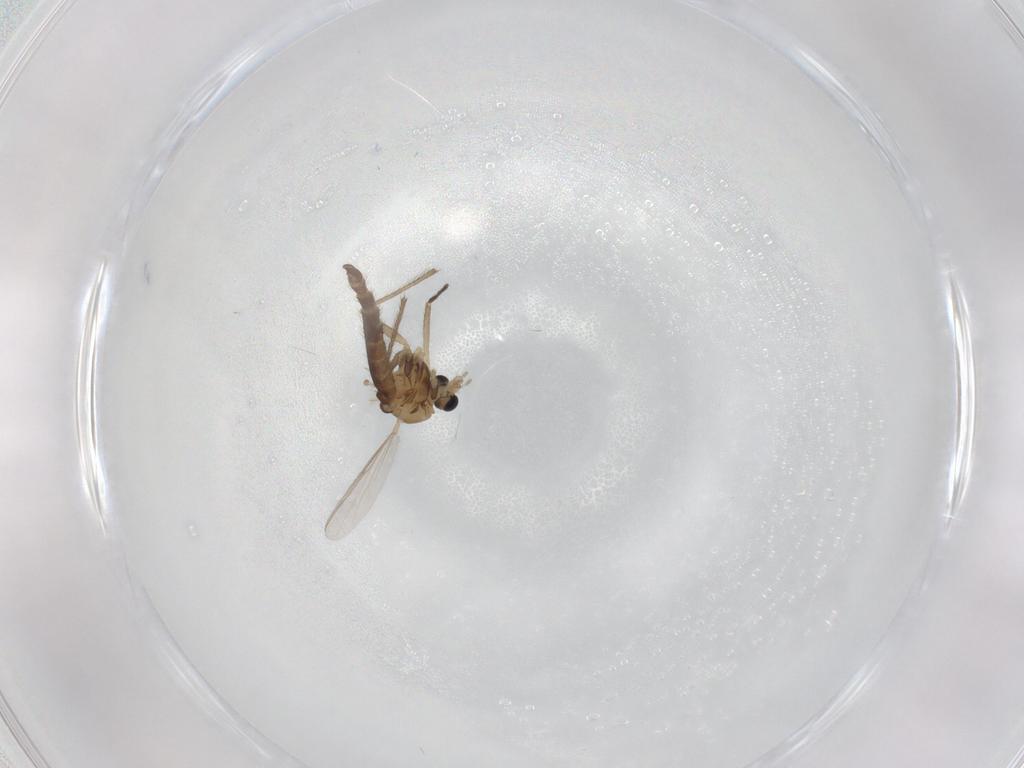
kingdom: Animalia
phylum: Arthropoda
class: Insecta
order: Diptera
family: Chironomidae
